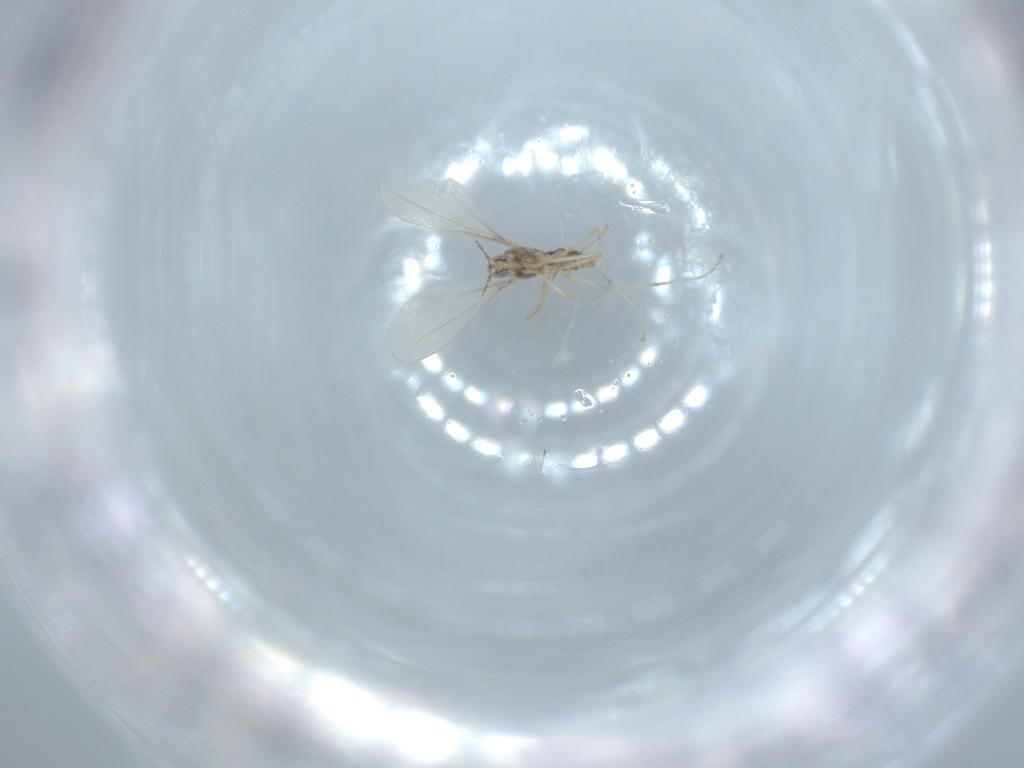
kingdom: Animalia
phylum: Arthropoda
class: Insecta
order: Diptera
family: Cecidomyiidae
